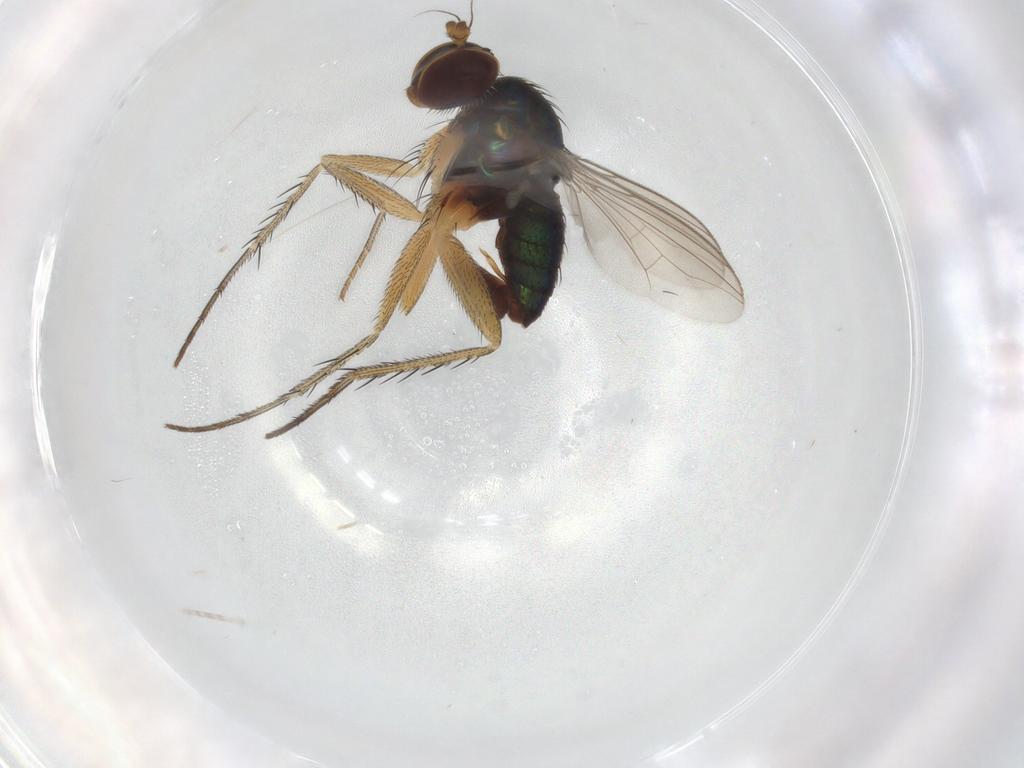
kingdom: Animalia
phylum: Arthropoda
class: Insecta
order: Diptera
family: Dolichopodidae
